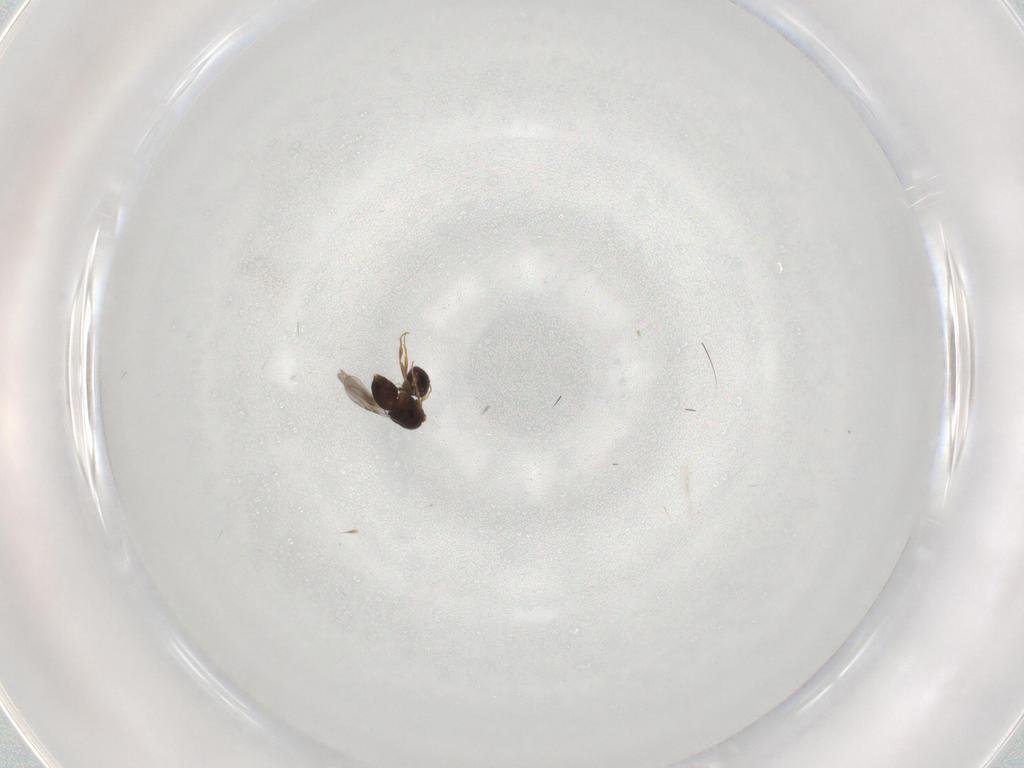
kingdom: Animalia
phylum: Arthropoda
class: Insecta
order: Hymenoptera
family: Ceraphronidae
